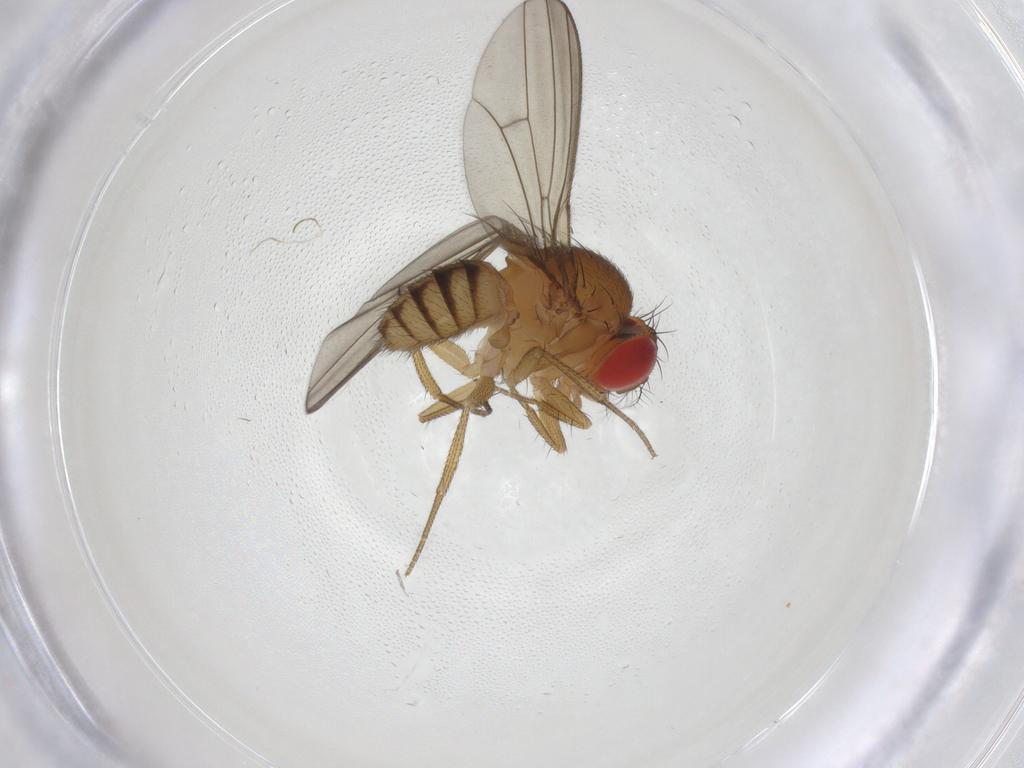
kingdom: Animalia
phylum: Arthropoda
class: Insecta
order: Diptera
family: Drosophilidae
